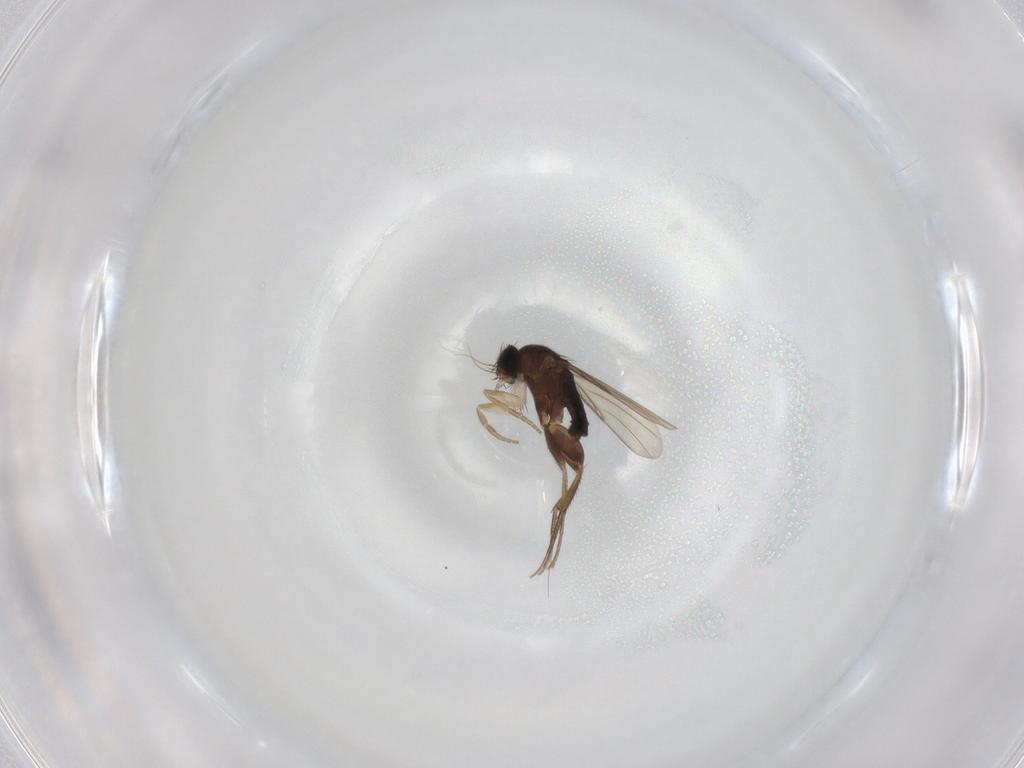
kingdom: Animalia
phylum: Arthropoda
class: Insecta
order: Diptera
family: Phoridae
